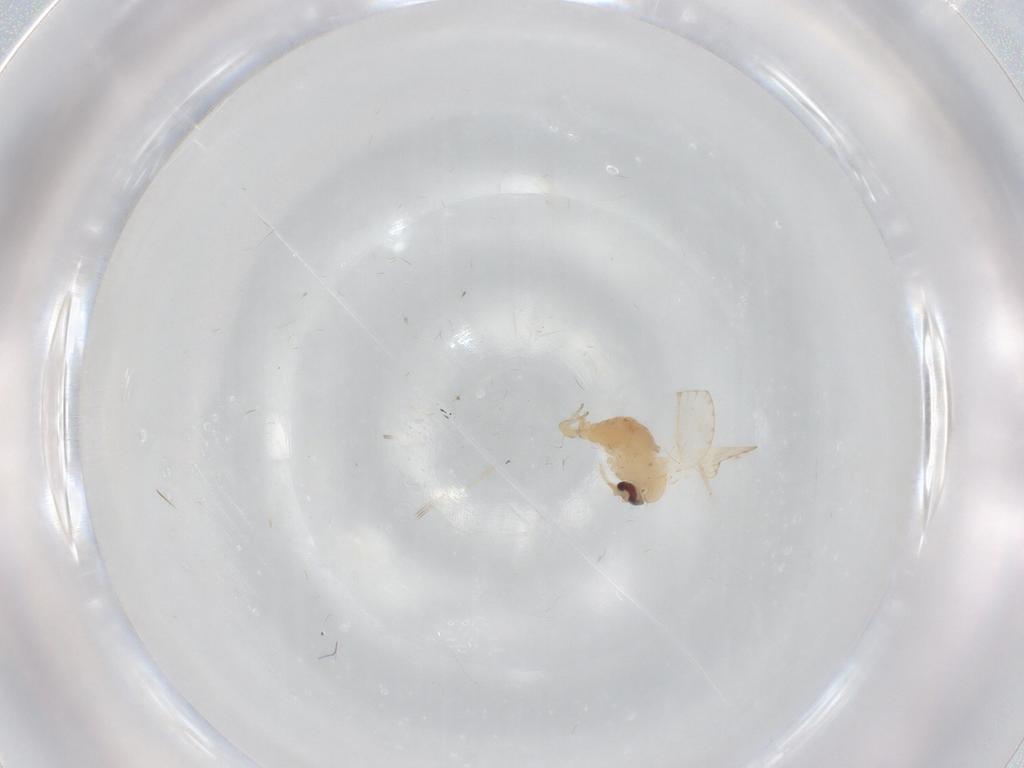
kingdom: Animalia
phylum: Arthropoda
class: Insecta
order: Diptera
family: Psychodidae
